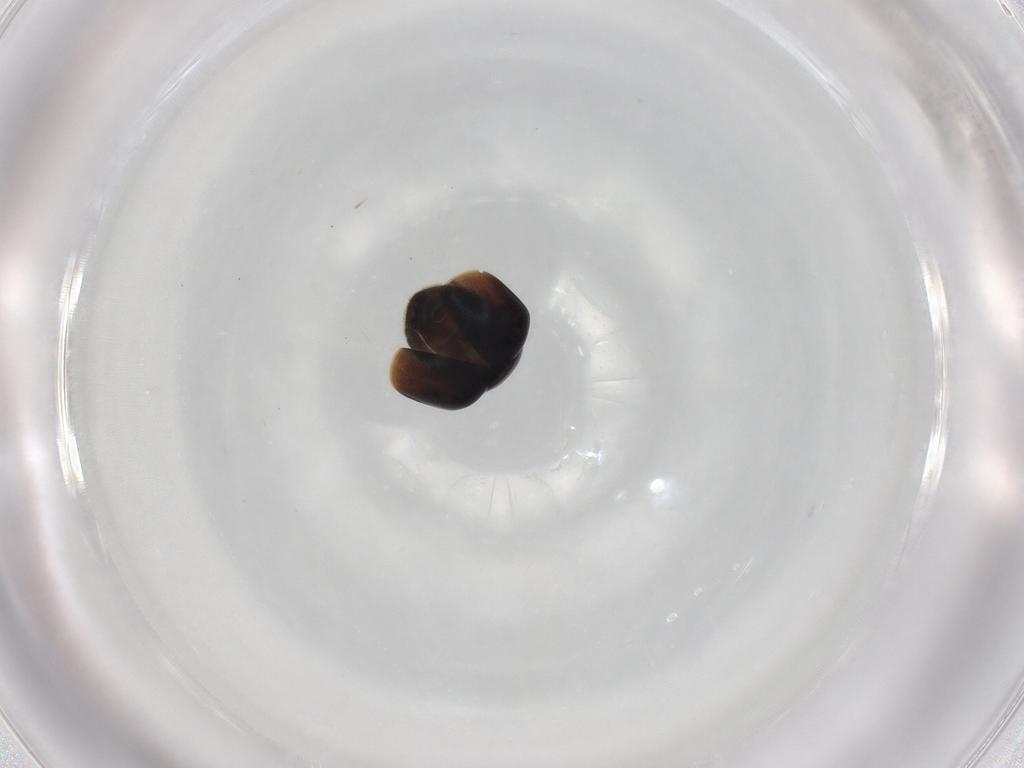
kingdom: Animalia
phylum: Arthropoda
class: Insecta
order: Coleoptera
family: Cybocephalidae
